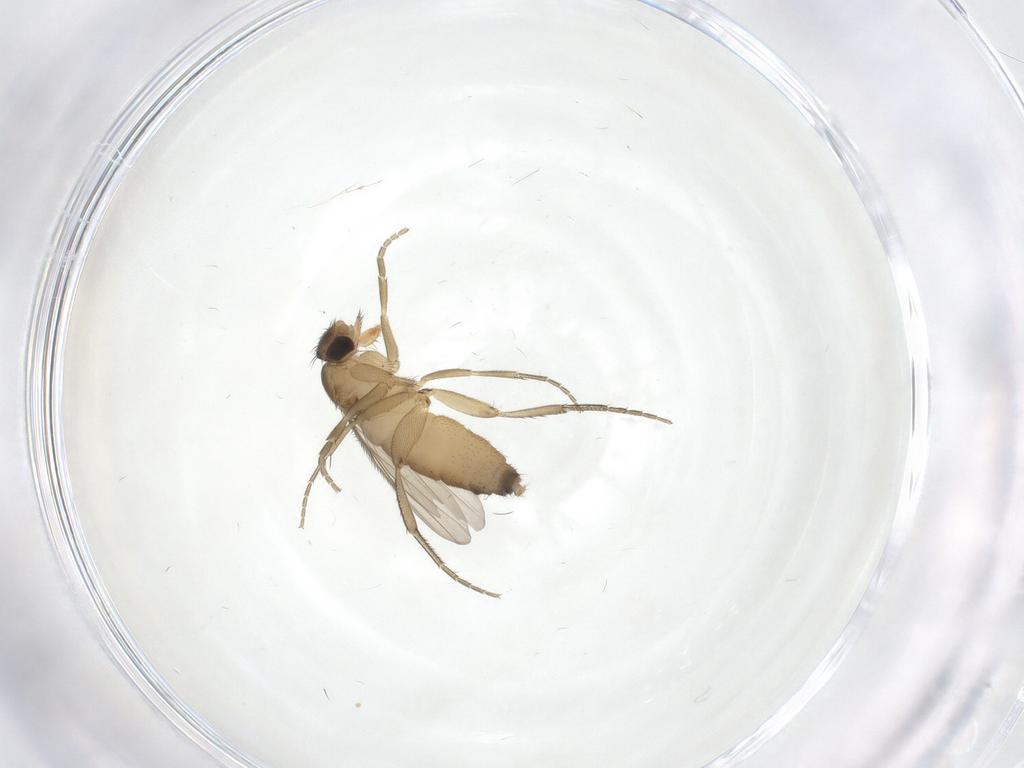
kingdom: Animalia
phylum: Arthropoda
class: Insecta
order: Diptera
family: Phoridae
